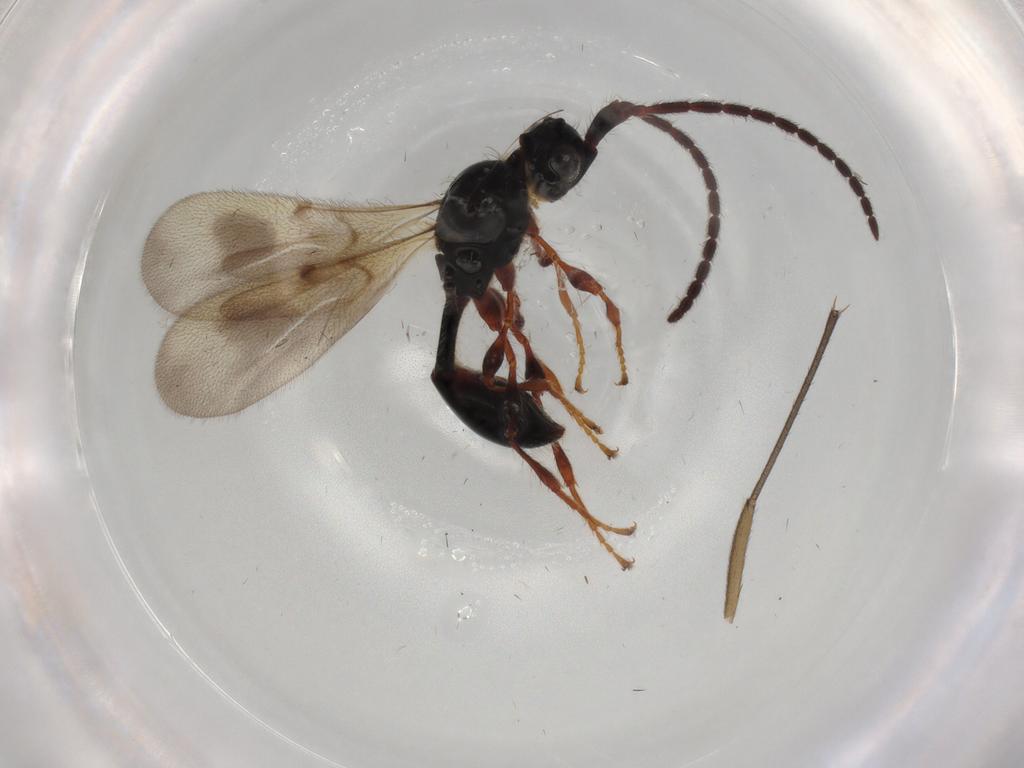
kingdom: Animalia
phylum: Arthropoda
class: Insecta
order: Hymenoptera
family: Diapriidae
